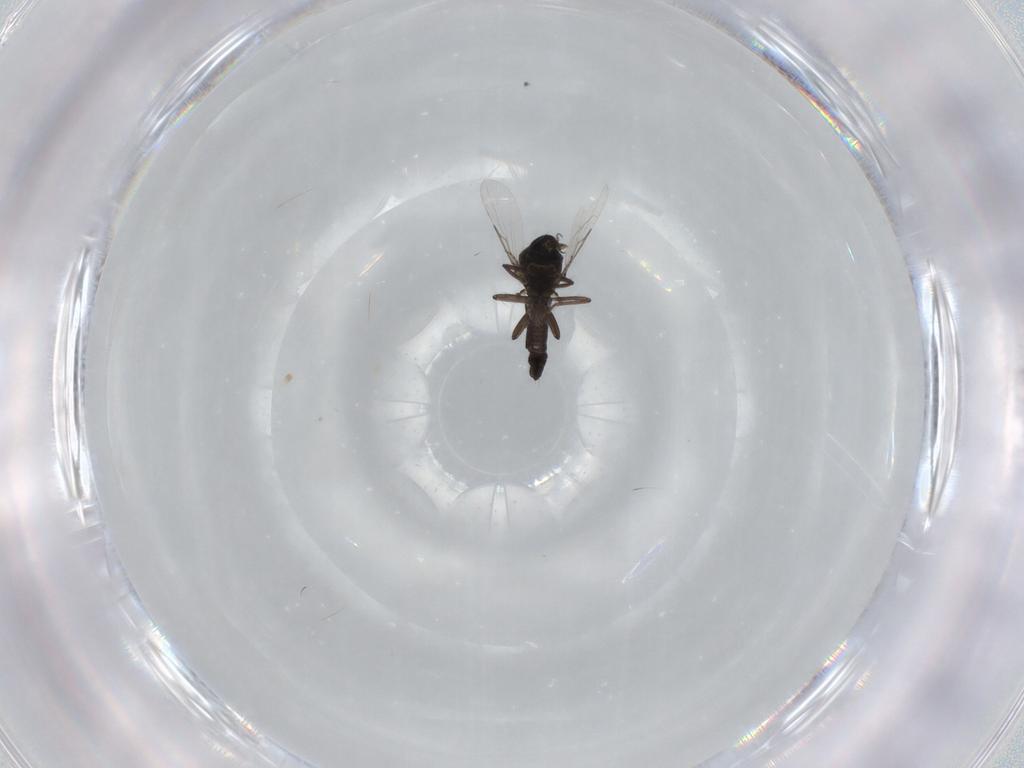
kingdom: Animalia
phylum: Arthropoda
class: Insecta
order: Diptera
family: Ceratopogonidae
